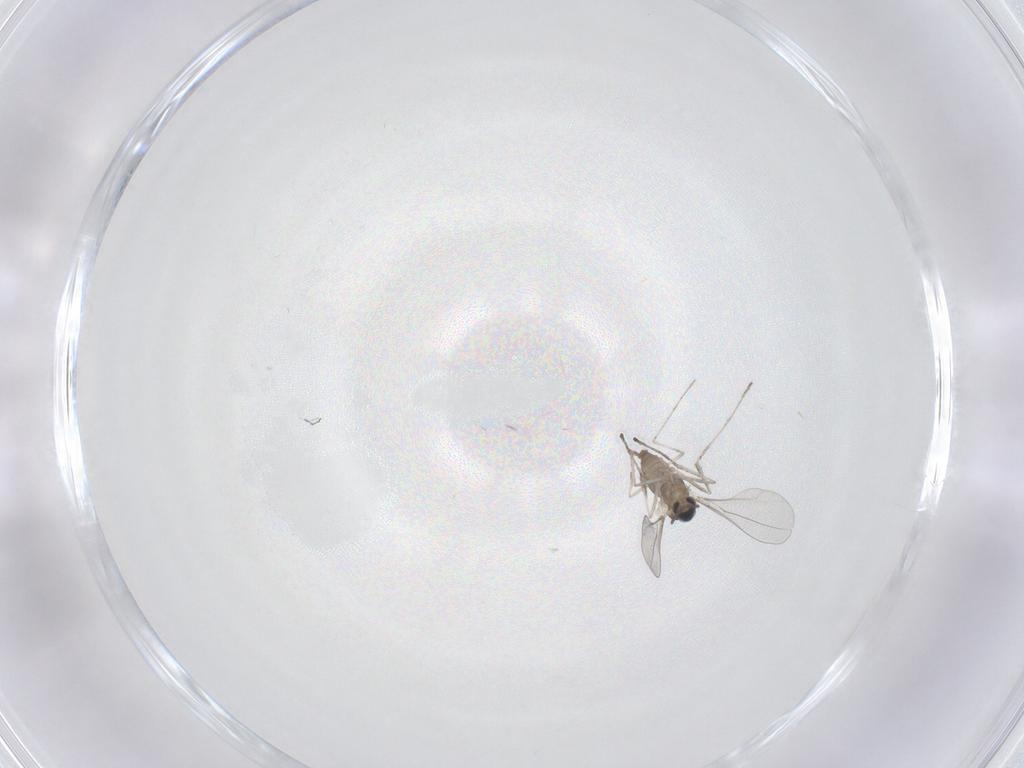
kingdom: Animalia
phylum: Arthropoda
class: Insecta
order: Diptera
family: Cecidomyiidae
